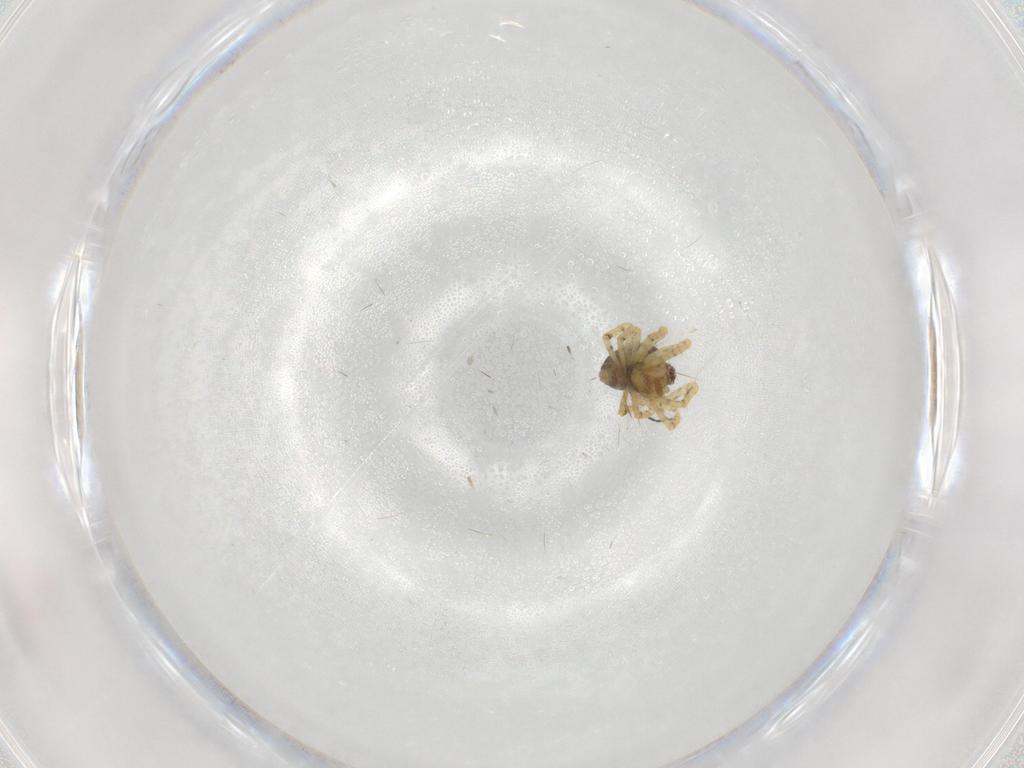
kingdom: Animalia
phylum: Arthropoda
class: Arachnida
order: Araneae
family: Theridiidae
